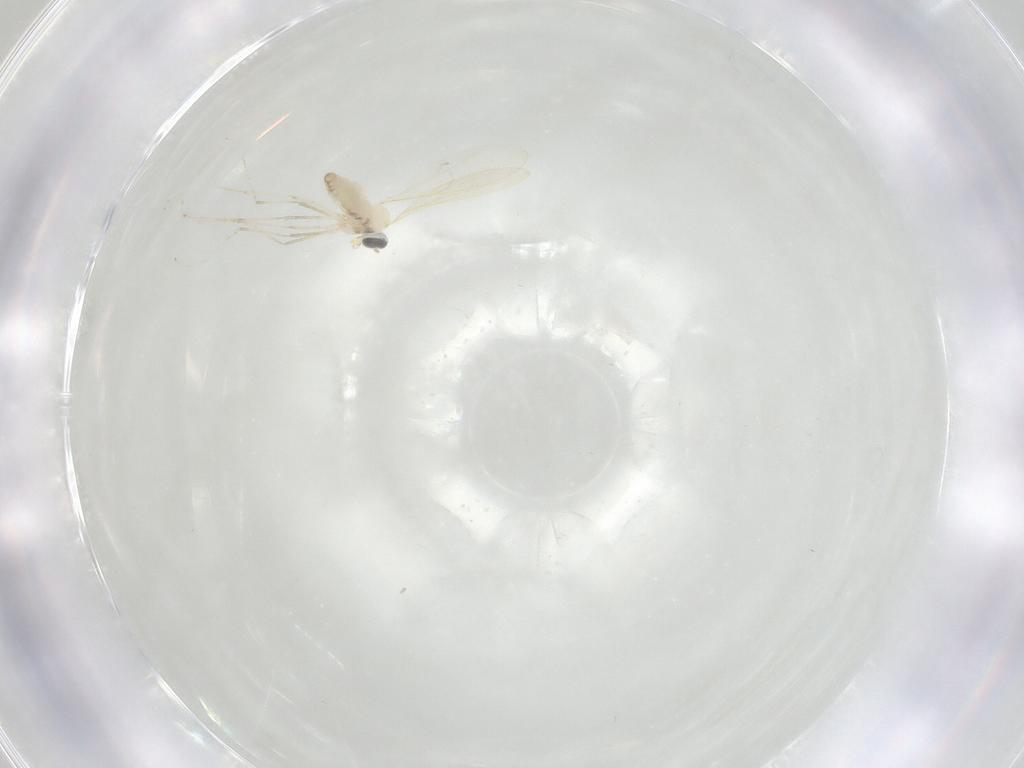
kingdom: Animalia
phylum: Arthropoda
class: Insecta
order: Diptera
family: Cecidomyiidae
